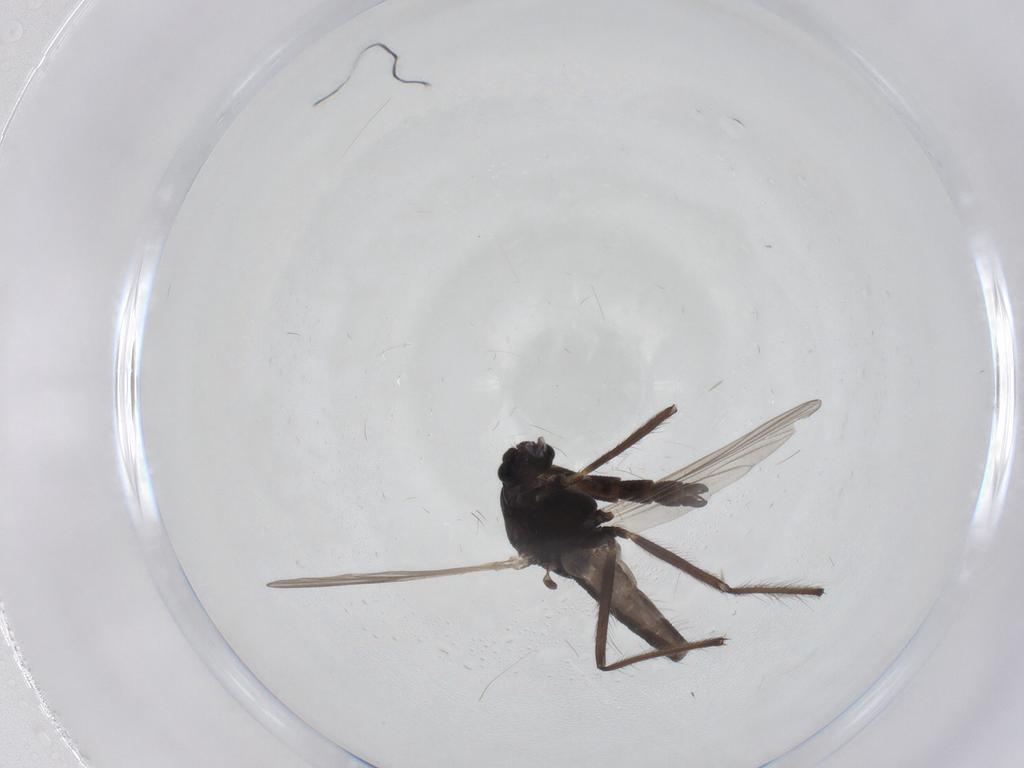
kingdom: Animalia
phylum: Arthropoda
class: Insecta
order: Diptera
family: Chironomidae
